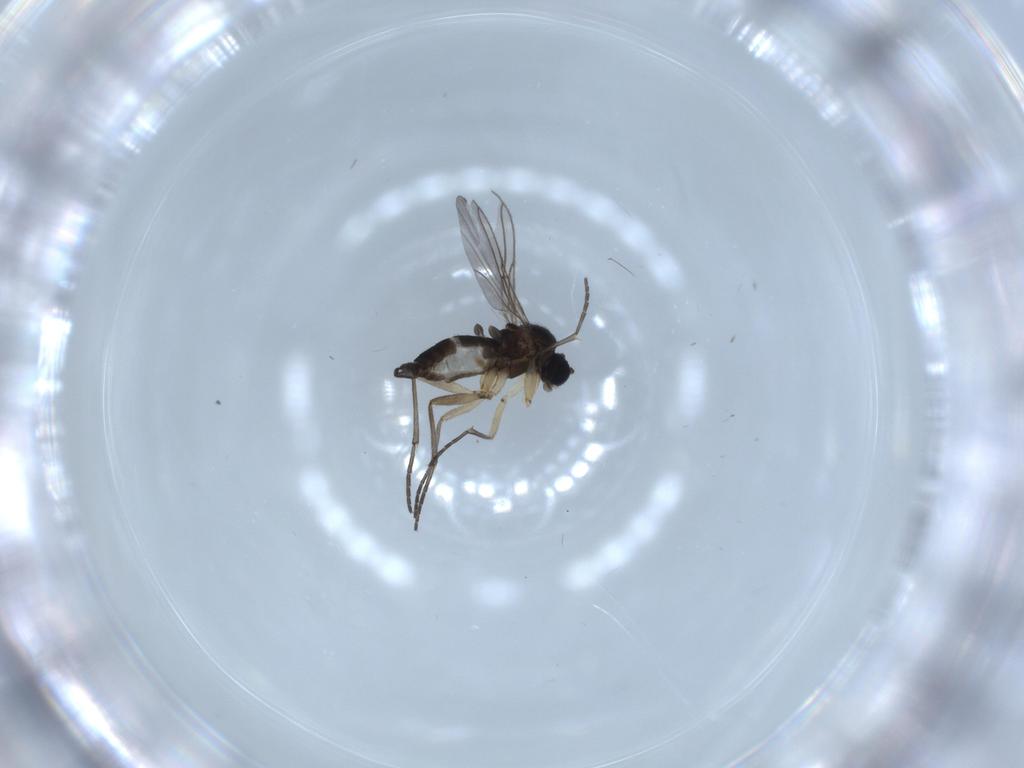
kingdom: Animalia
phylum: Arthropoda
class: Insecta
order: Diptera
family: Sciaridae
